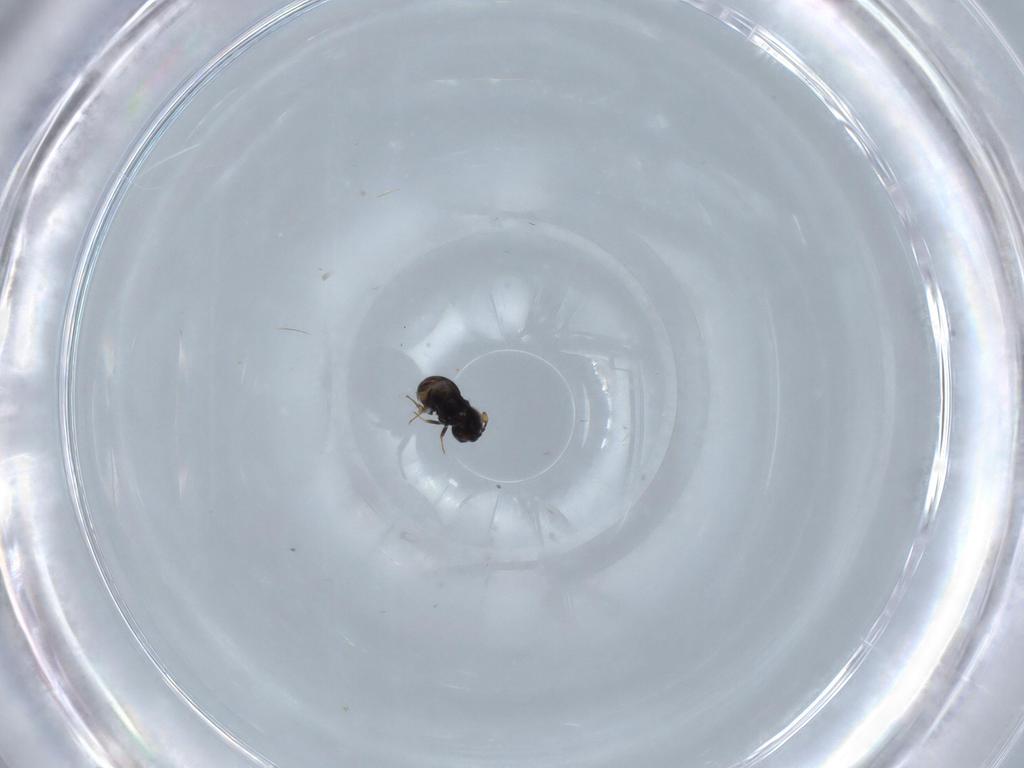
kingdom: Animalia
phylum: Arthropoda
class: Insecta
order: Hymenoptera
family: Scelionidae
